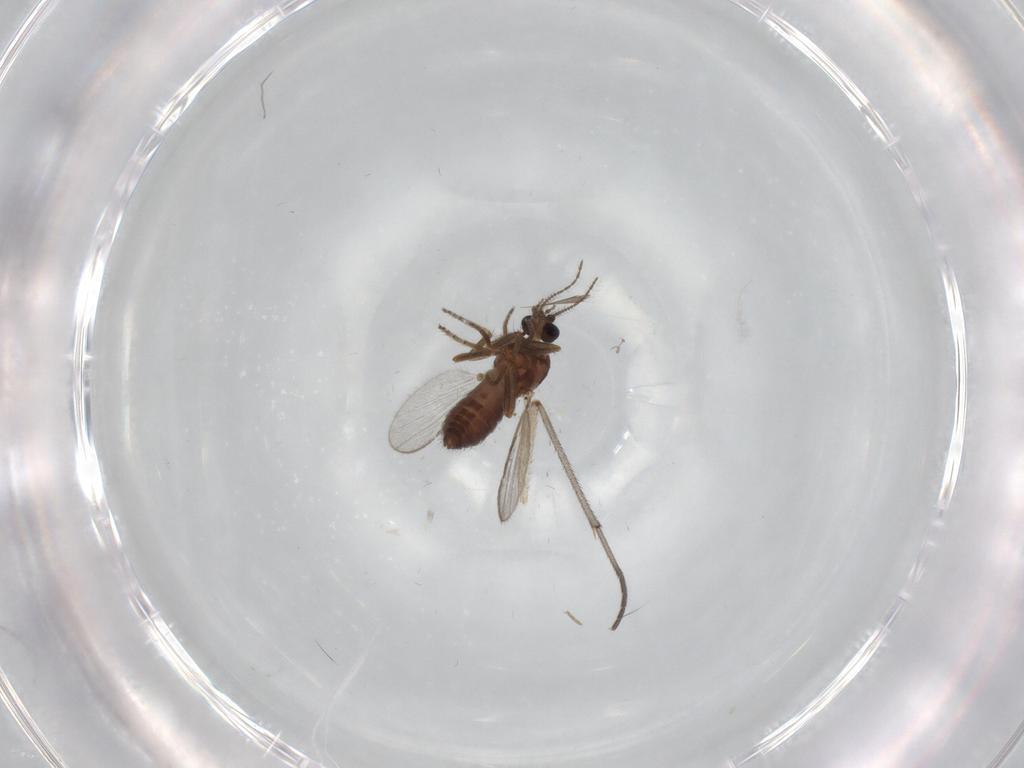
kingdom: Animalia
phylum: Arthropoda
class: Insecta
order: Diptera
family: Ceratopogonidae
